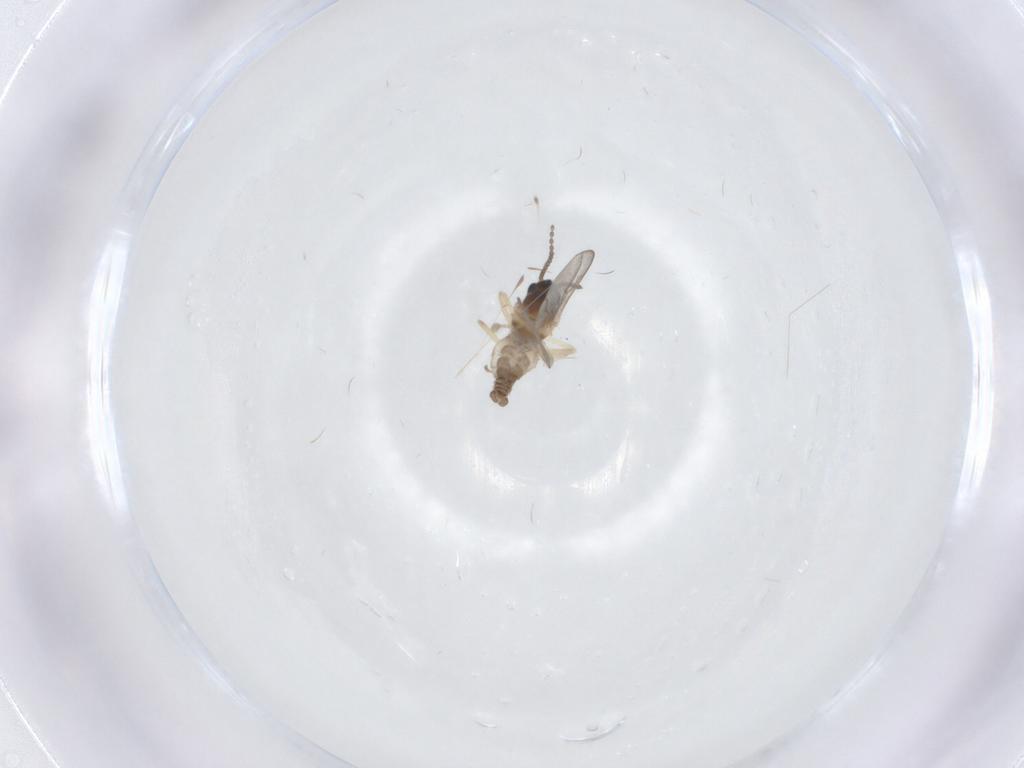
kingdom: Animalia
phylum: Arthropoda
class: Insecta
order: Diptera
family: Cecidomyiidae
